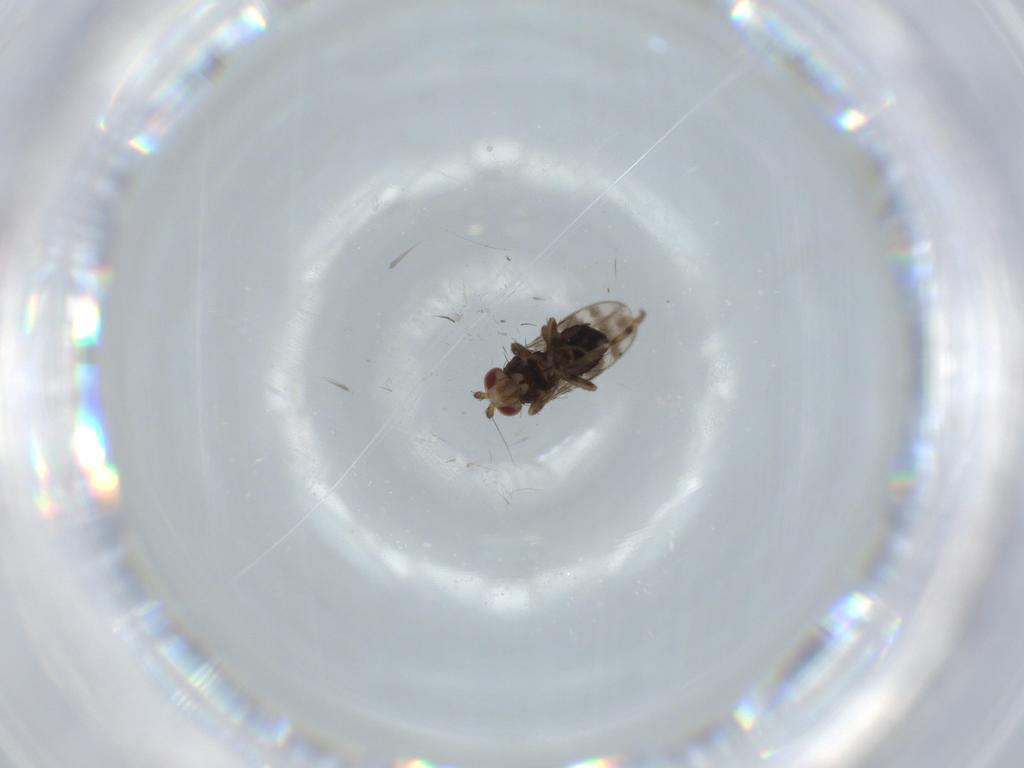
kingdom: Animalia
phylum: Arthropoda
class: Insecta
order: Diptera
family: Sphaeroceridae
